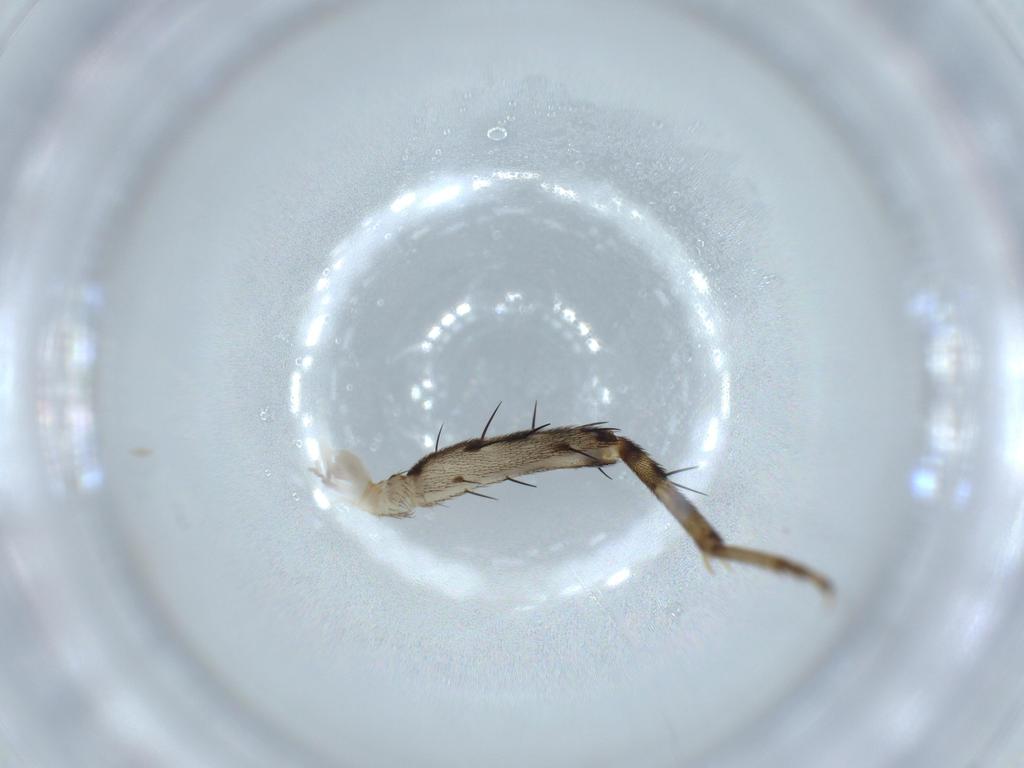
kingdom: Animalia
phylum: Arthropoda
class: Insecta
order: Orthoptera
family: Trigonidiidae
